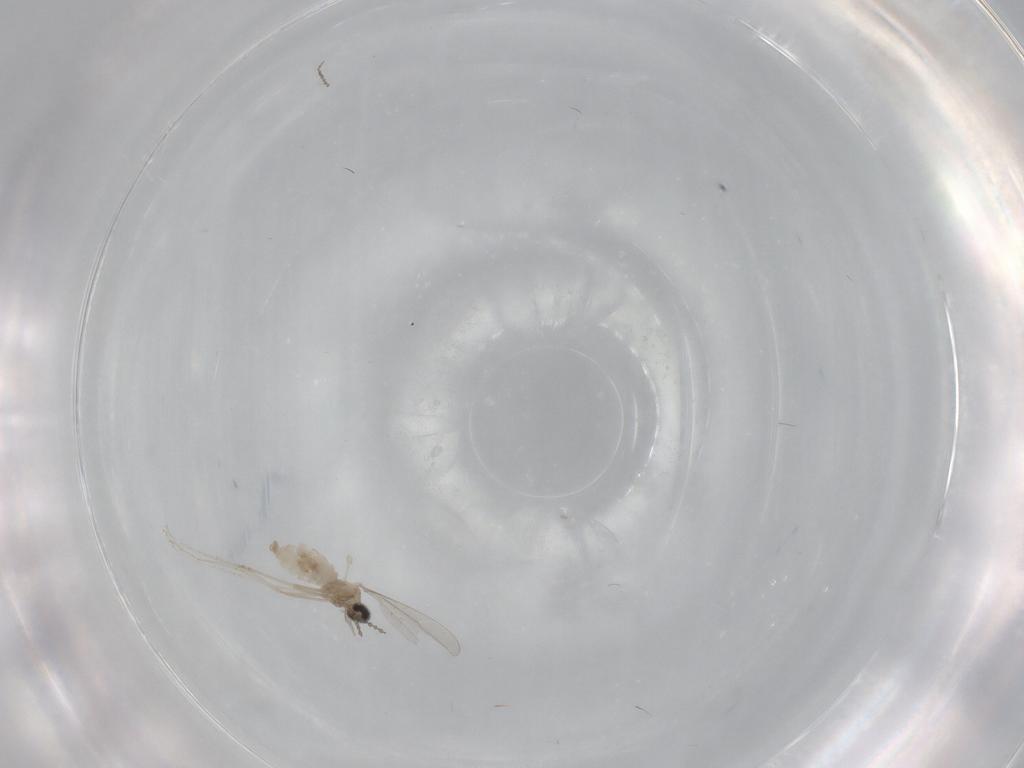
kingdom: Animalia
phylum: Arthropoda
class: Insecta
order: Diptera
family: Cecidomyiidae
